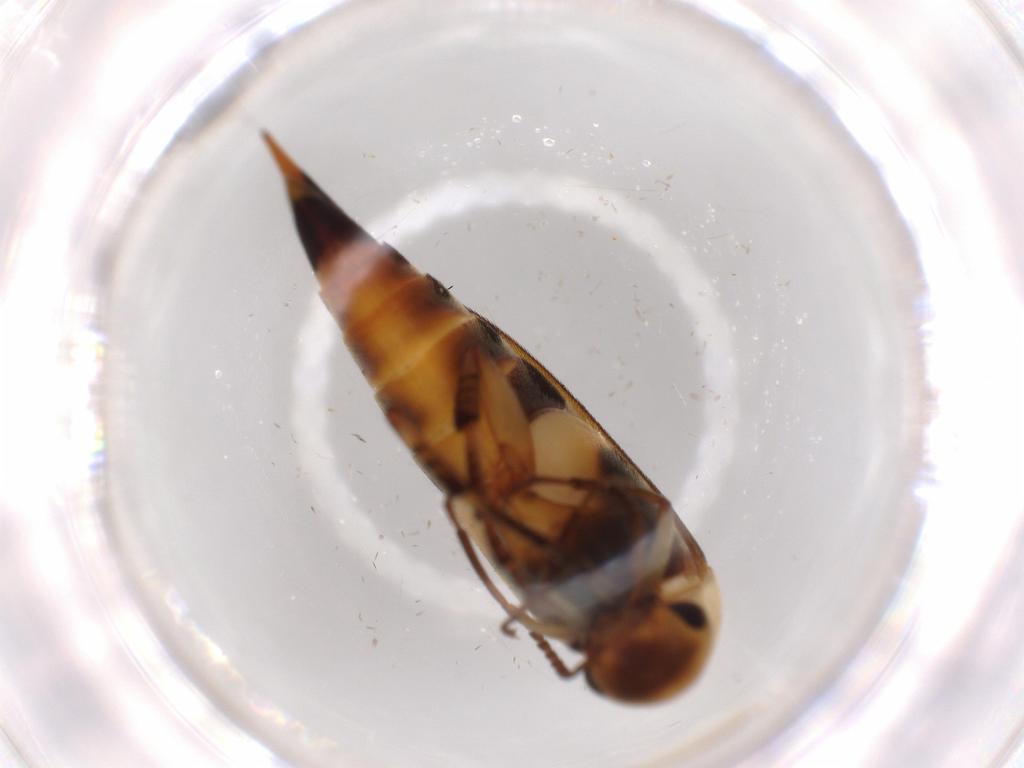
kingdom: Animalia
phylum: Arthropoda
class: Insecta
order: Coleoptera
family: Mordellidae
